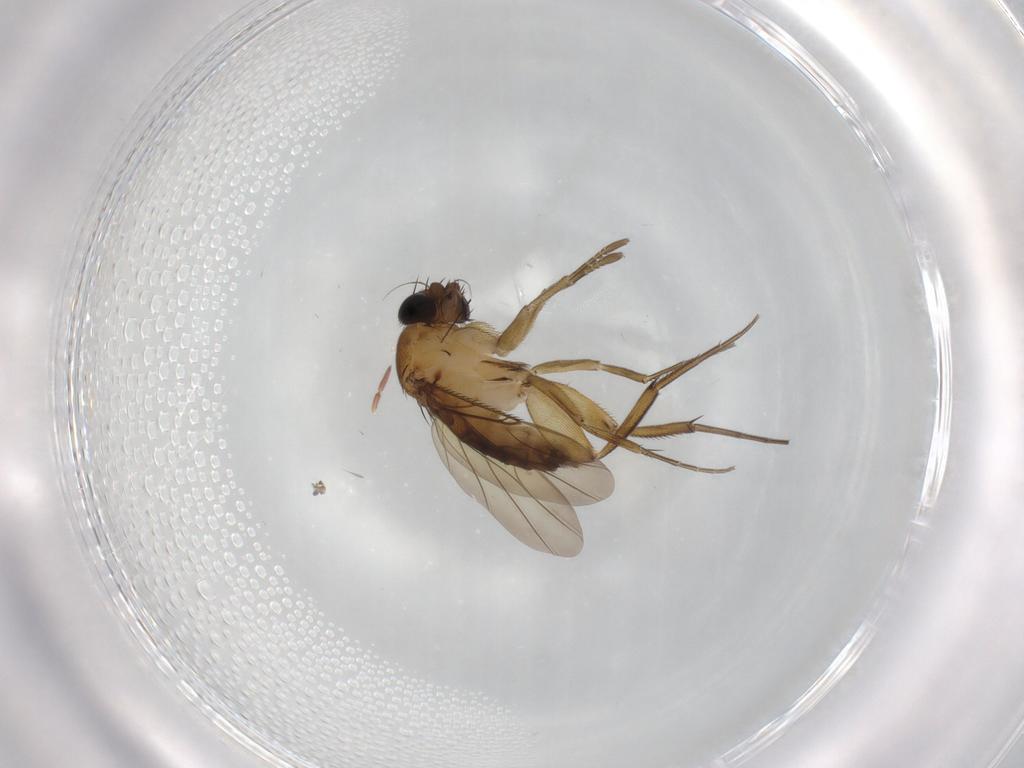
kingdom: Animalia
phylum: Arthropoda
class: Insecta
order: Diptera
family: Phoridae
